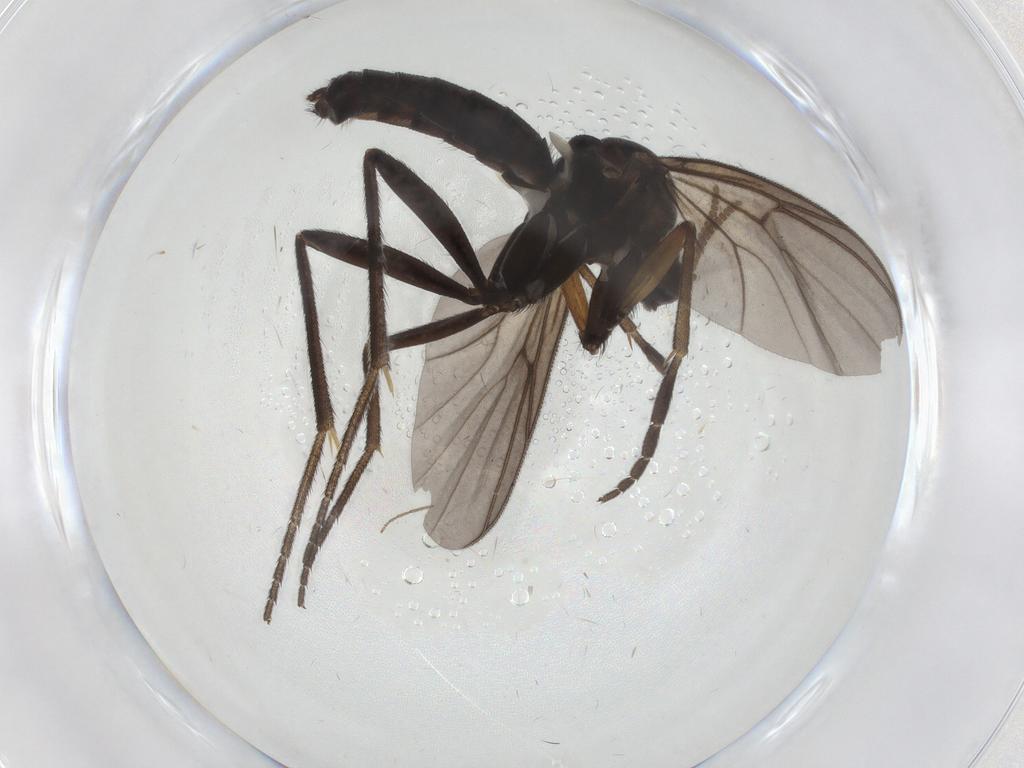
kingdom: Animalia
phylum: Arthropoda
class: Insecta
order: Diptera
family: Mycetophilidae
